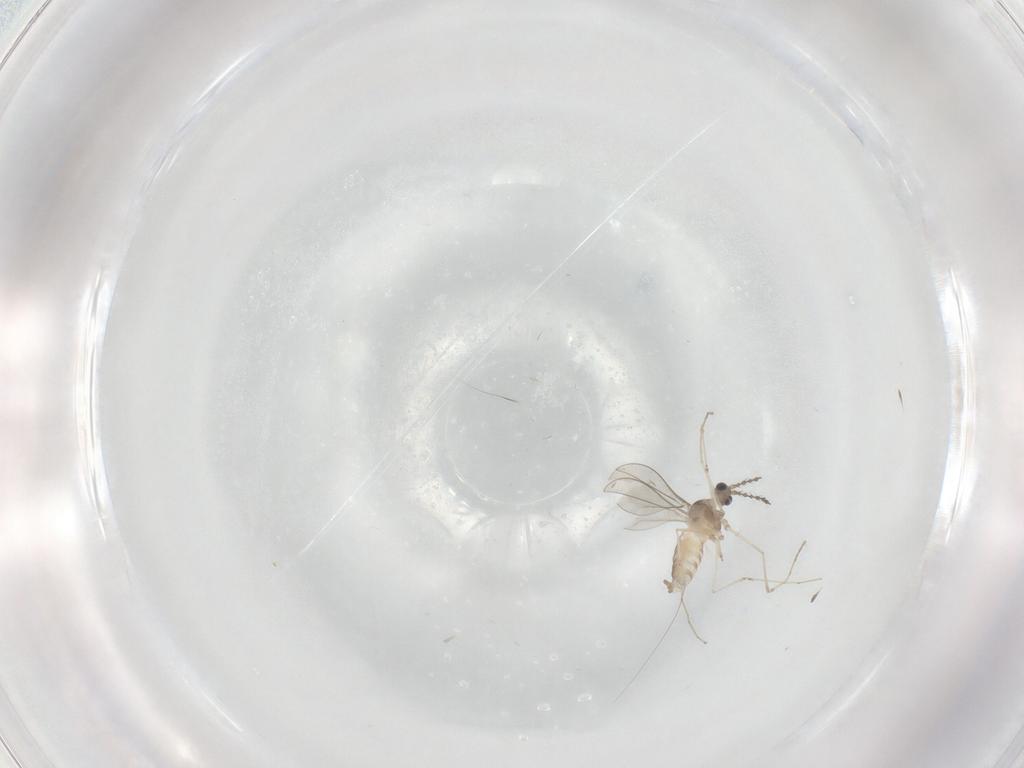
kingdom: Animalia
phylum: Arthropoda
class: Insecta
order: Diptera
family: Cecidomyiidae
